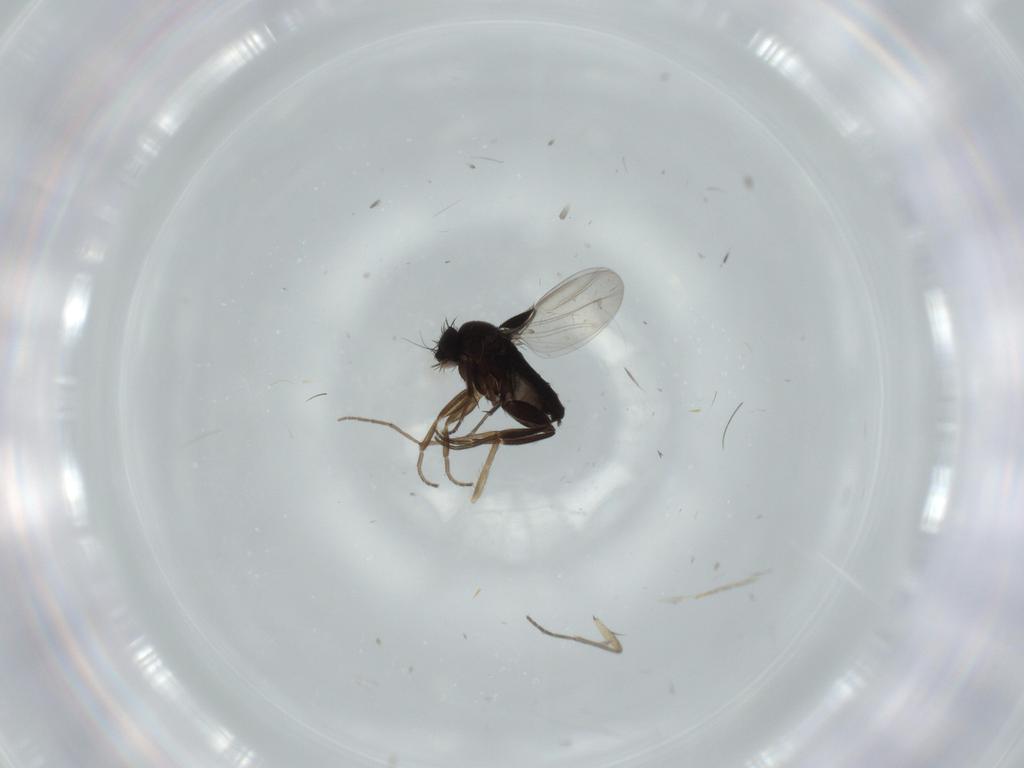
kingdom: Animalia
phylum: Arthropoda
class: Insecta
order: Diptera
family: Phoridae
